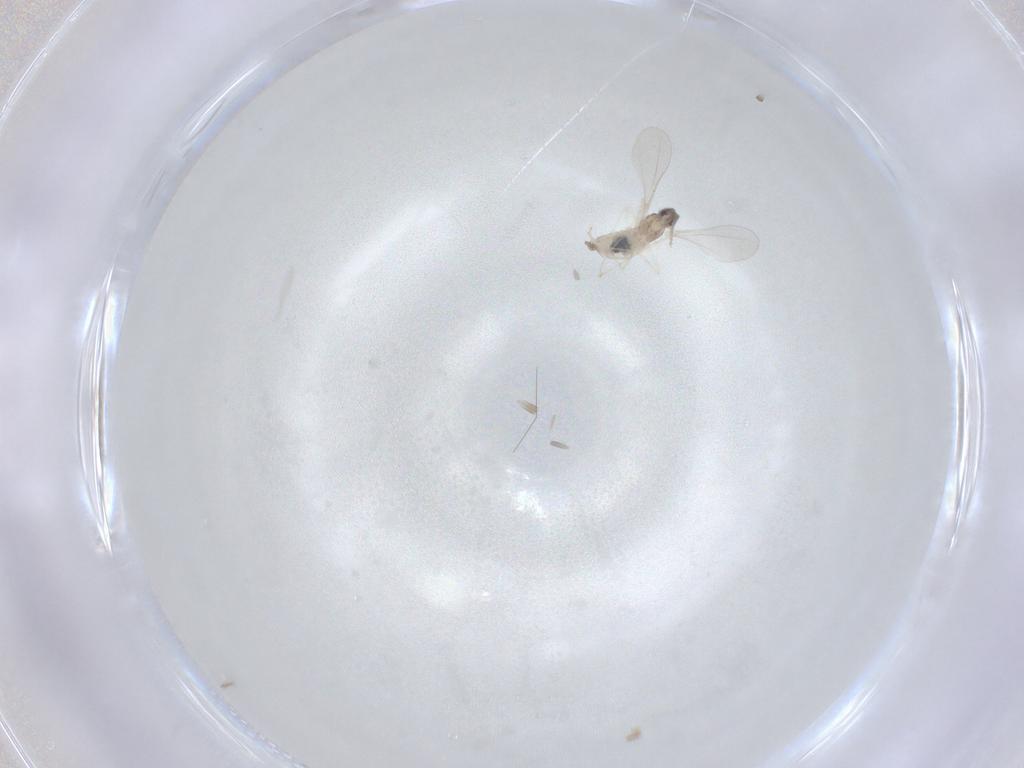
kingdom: Animalia
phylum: Arthropoda
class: Insecta
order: Diptera
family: Cecidomyiidae
